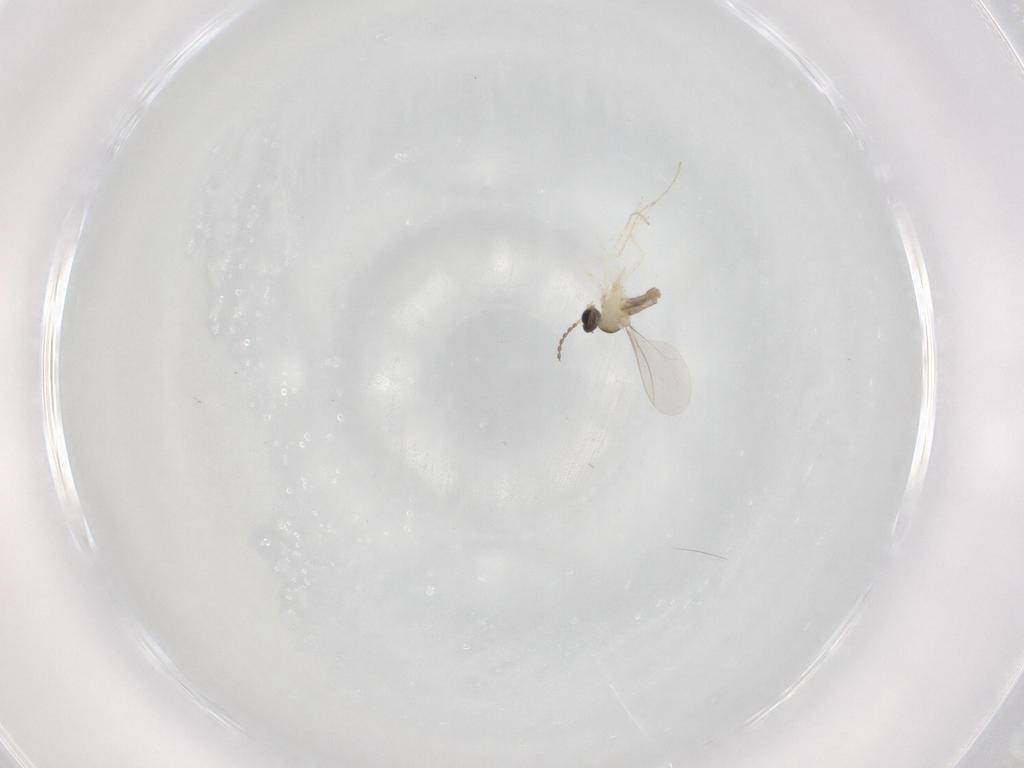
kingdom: Animalia
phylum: Arthropoda
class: Insecta
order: Diptera
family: Cecidomyiidae
